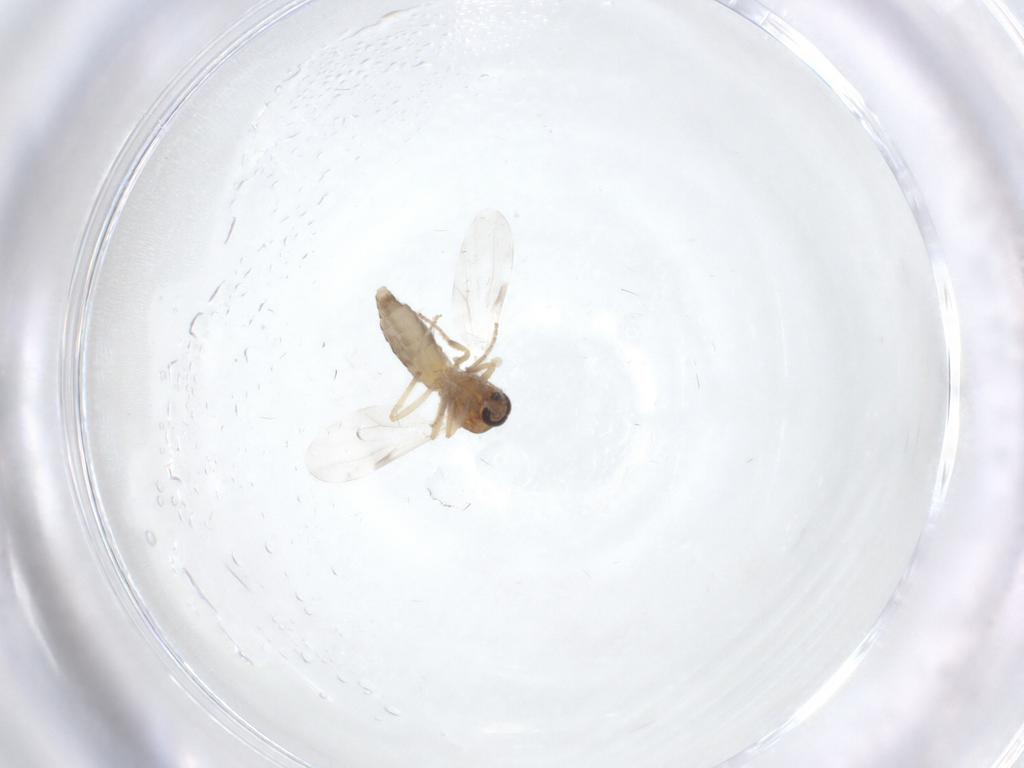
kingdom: Animalia
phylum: Arthropoda
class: Insecta
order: Diptera
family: Ceratopogonidae
